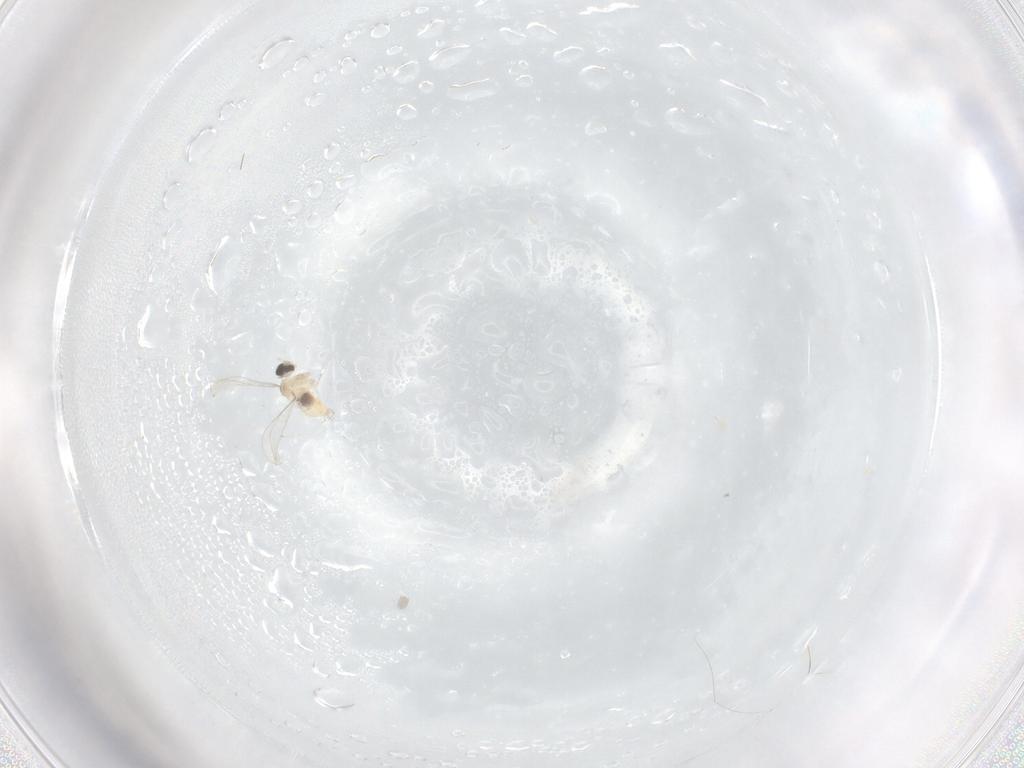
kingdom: Animalia
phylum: Arthropoda
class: Insecta
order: Diptera
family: Cecidomyiidae
